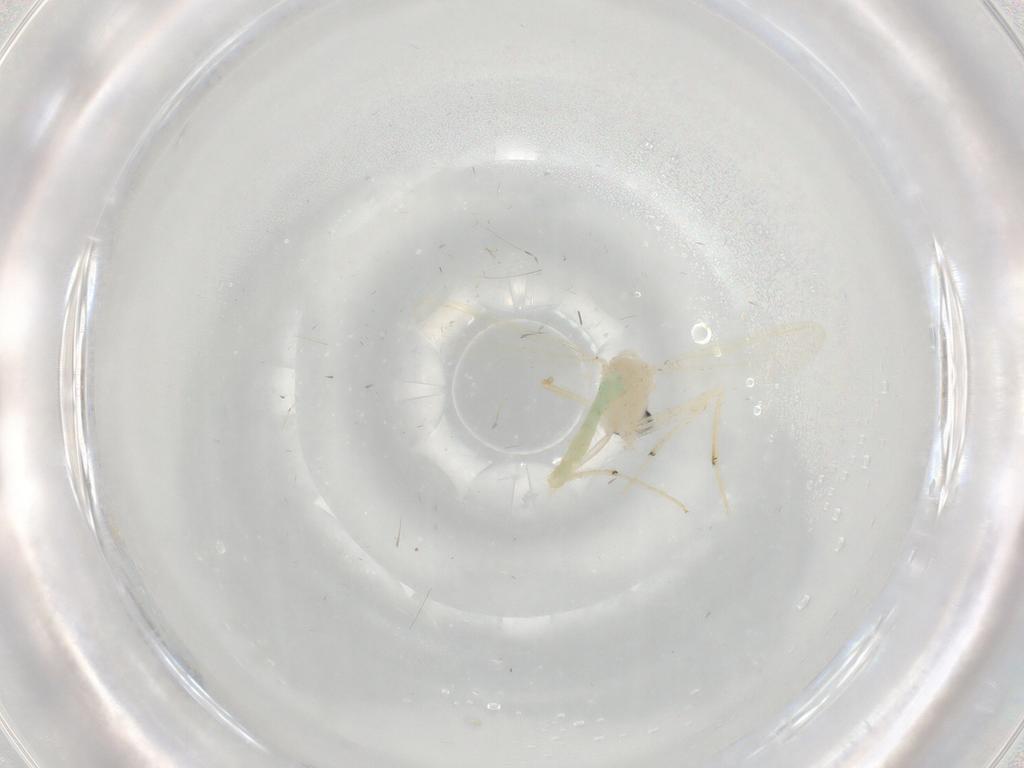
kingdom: Animalia
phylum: Arthropoda
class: Insecta
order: Diptera
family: Chironomidae
